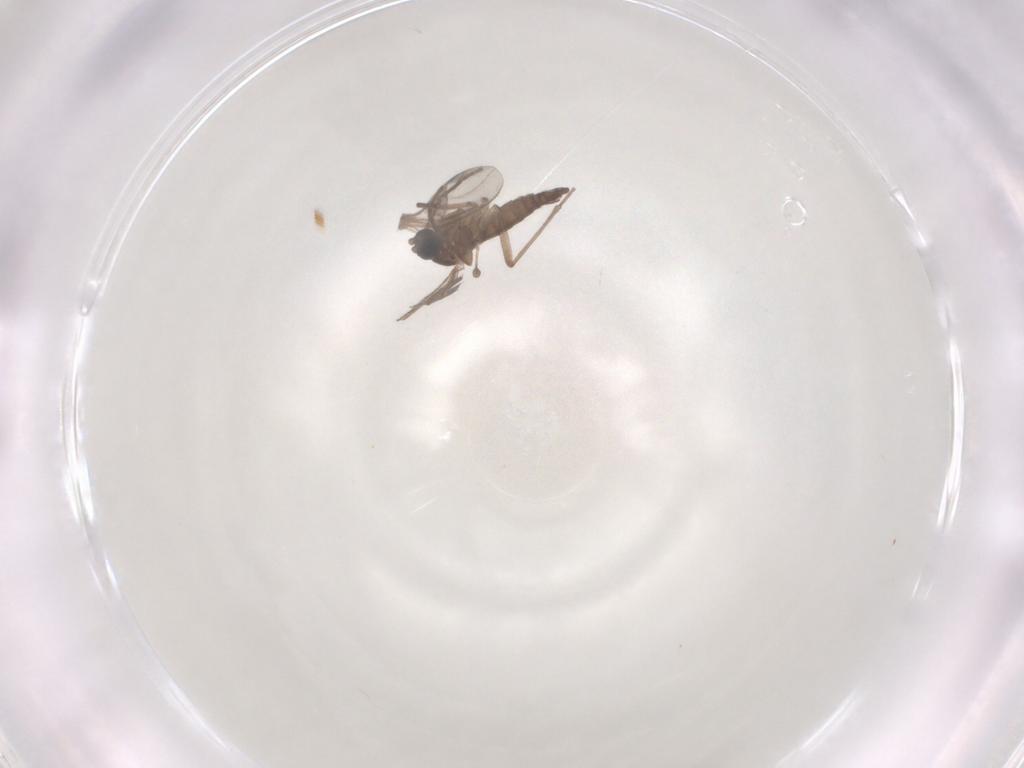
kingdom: Animalia
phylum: Arthropoda
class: Insecta
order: Diptera
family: Sciaridae
